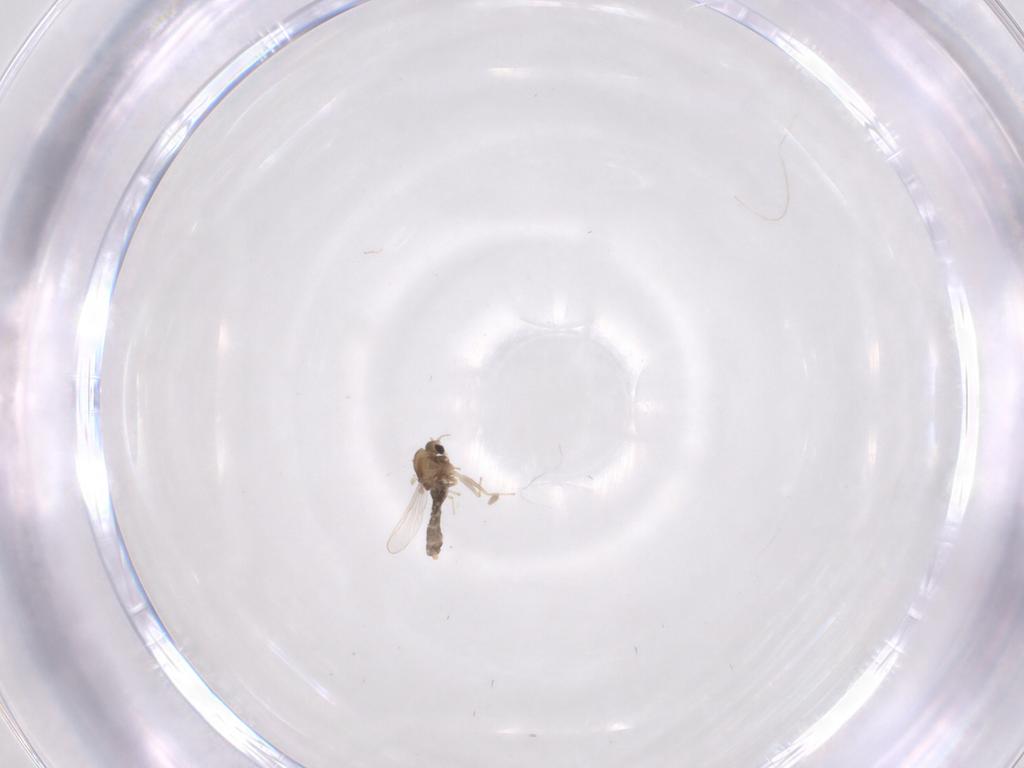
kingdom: Animalia
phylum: Arthropoda
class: Insecta
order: Diptera
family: Chironomidae
